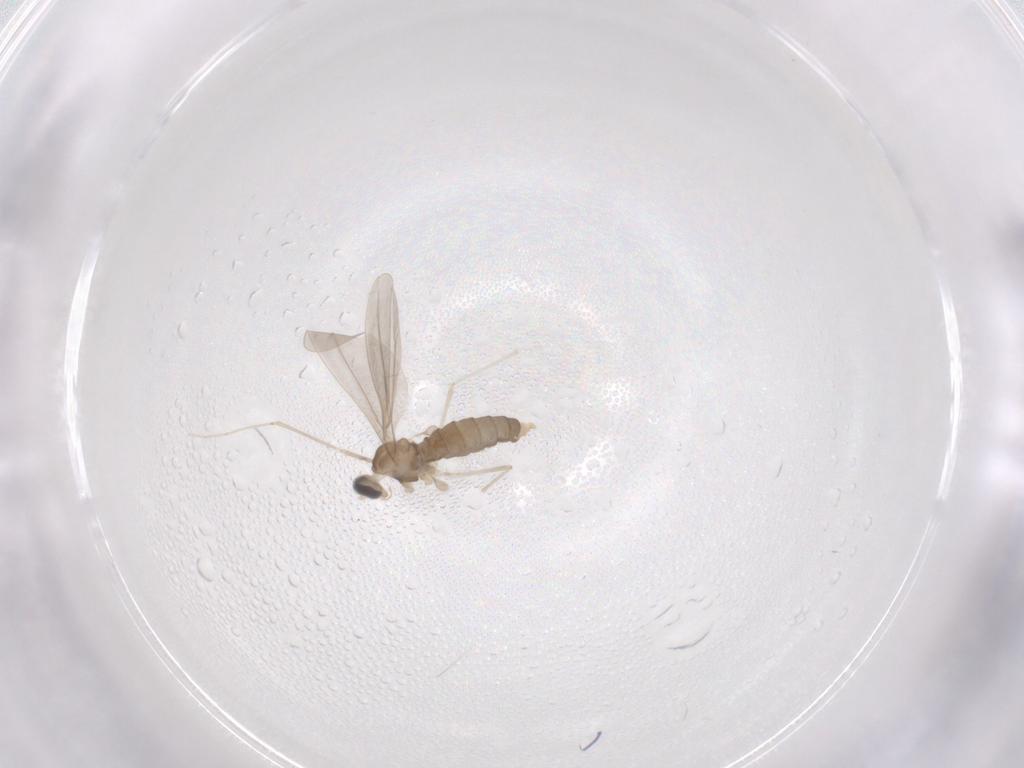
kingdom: Animalia
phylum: Arthropoda
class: Insecta
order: Diptera
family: Cecidomyiidae
